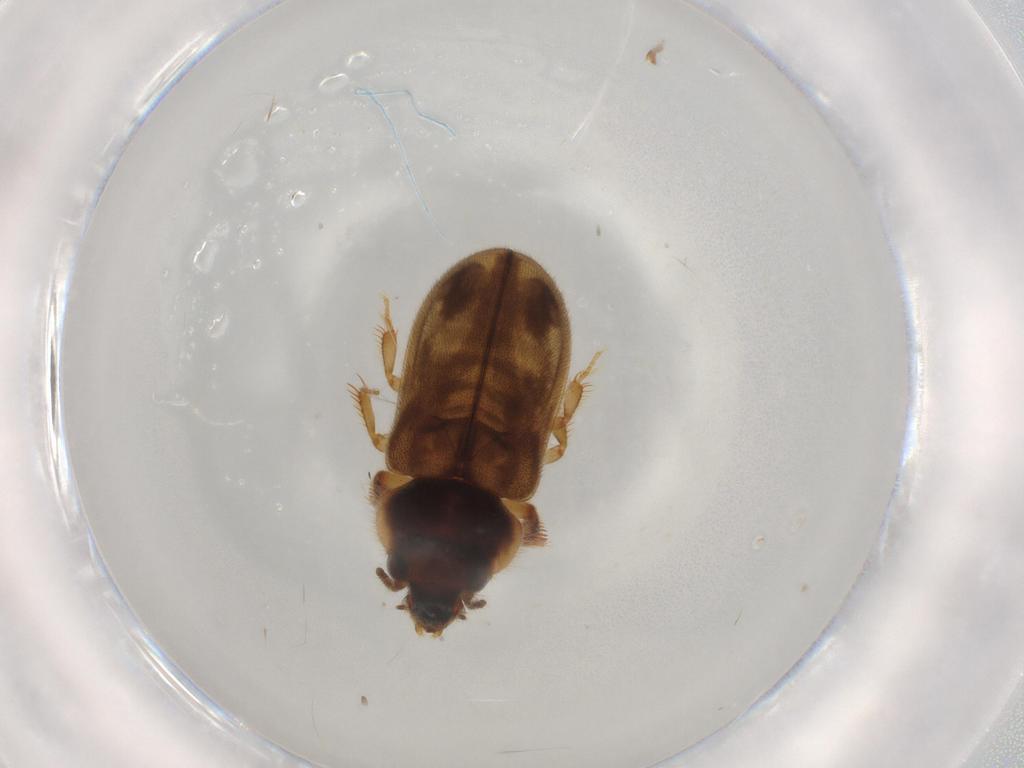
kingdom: Animalia
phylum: Arthropoda
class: Insecta
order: Coleoptera
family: Heteroceridae
